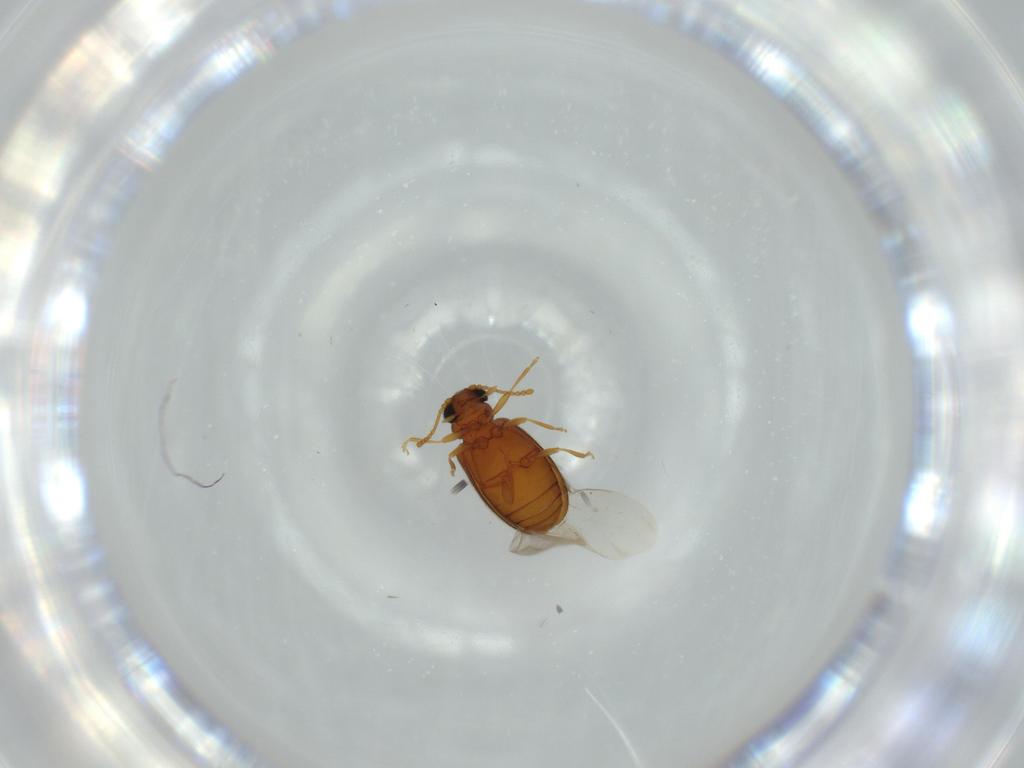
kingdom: Animalia
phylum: Arthropoda
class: Insecta
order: Coleoptera
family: Aderidae
